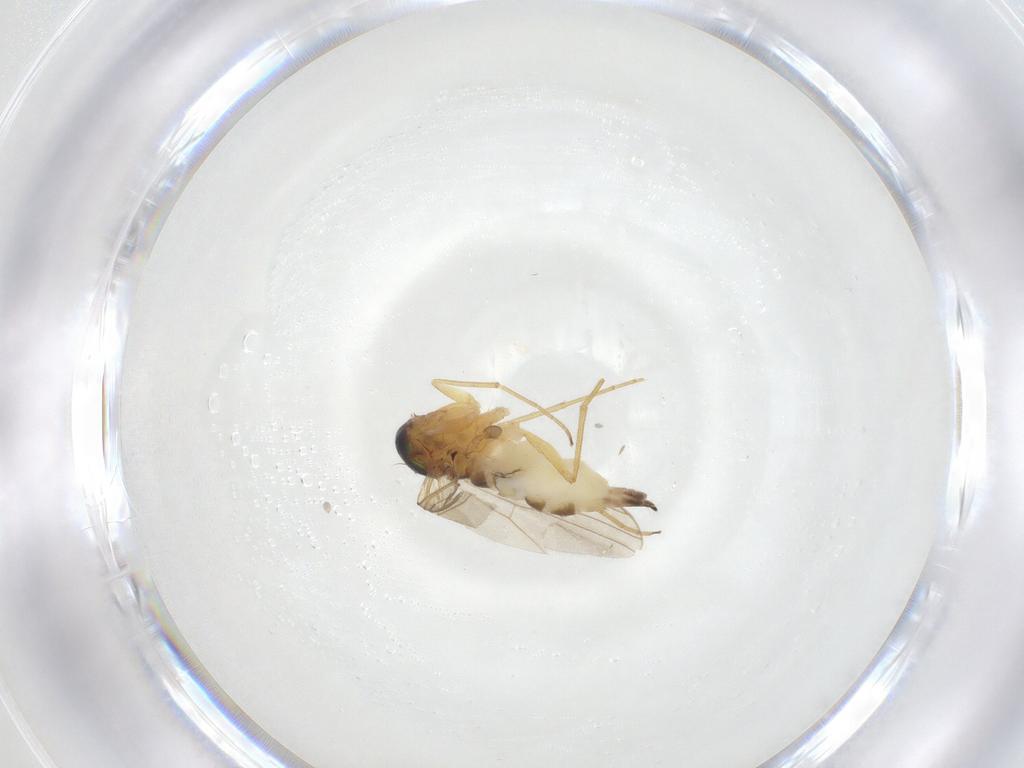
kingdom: Animalia
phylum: Arthropoda
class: Insecta
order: Diptera
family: Dolichopodidae
